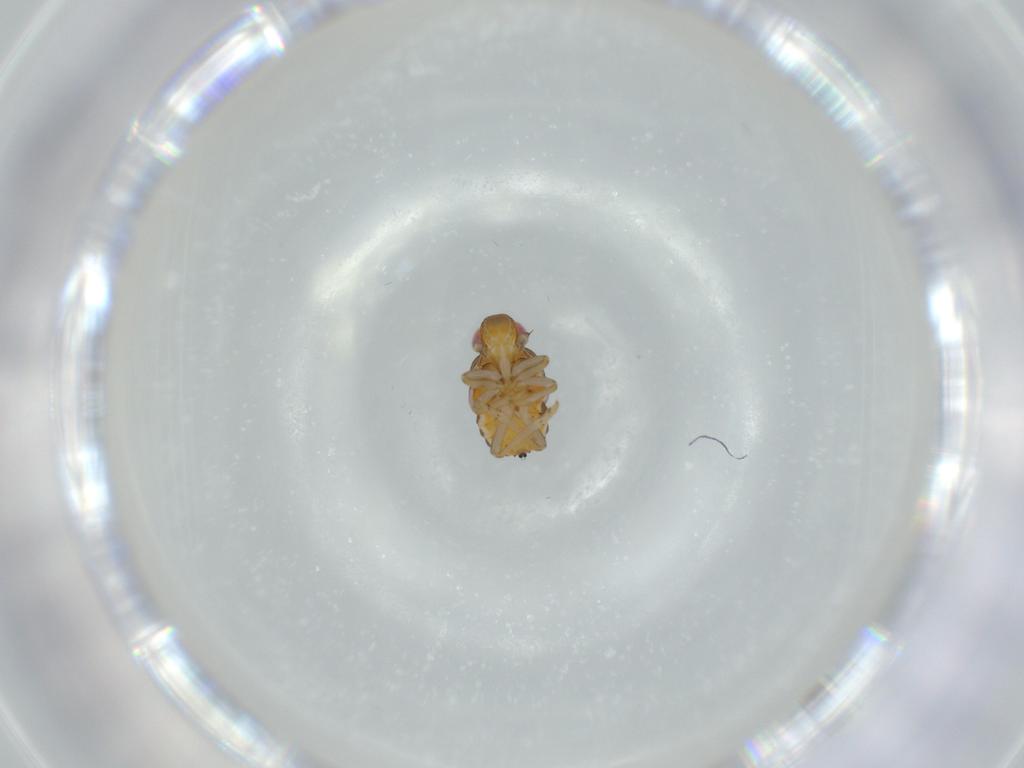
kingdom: Animalia
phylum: Arthropoda
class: Insecta
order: Hemiptera
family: Issidae
